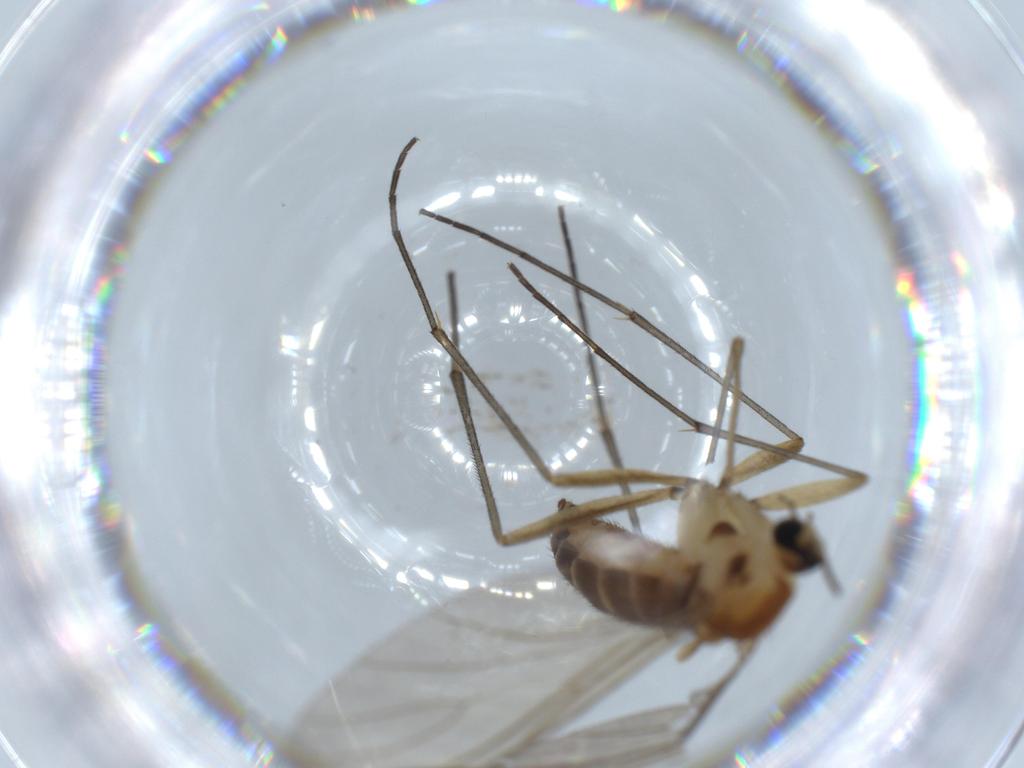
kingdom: Animalia
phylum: Arthropoda
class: Insecta
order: Diptera
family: Sciaridae
